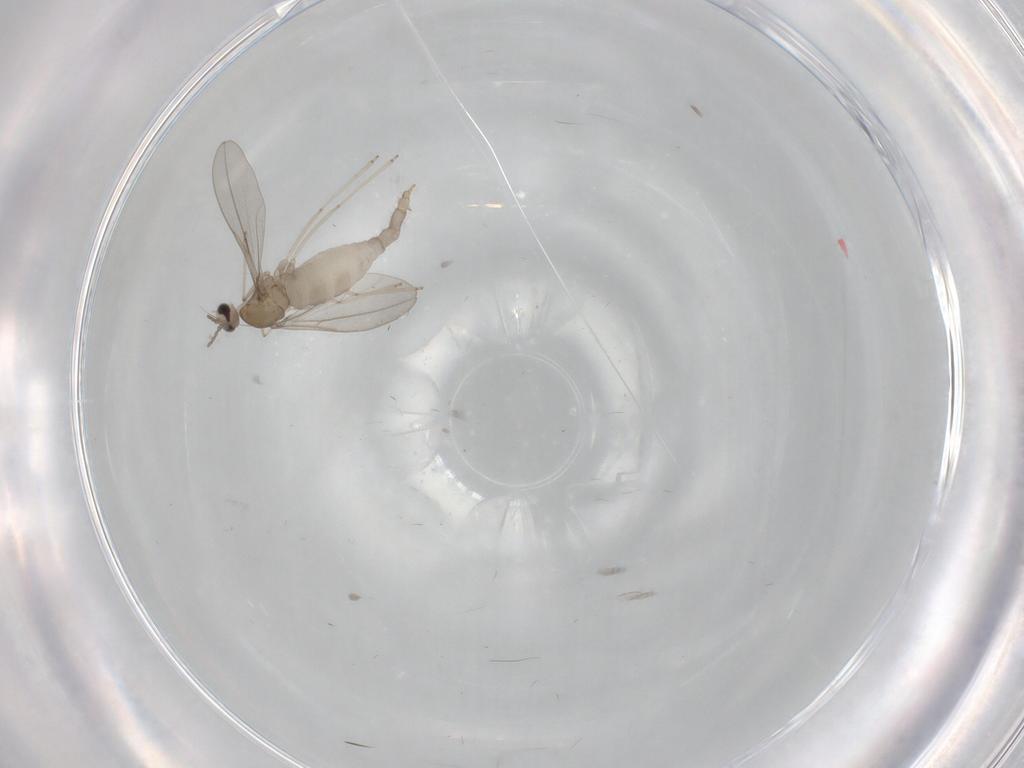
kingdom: Animalia
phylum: Arthropoda
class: Insecta
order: Diptera
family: Cecidomyiidae
